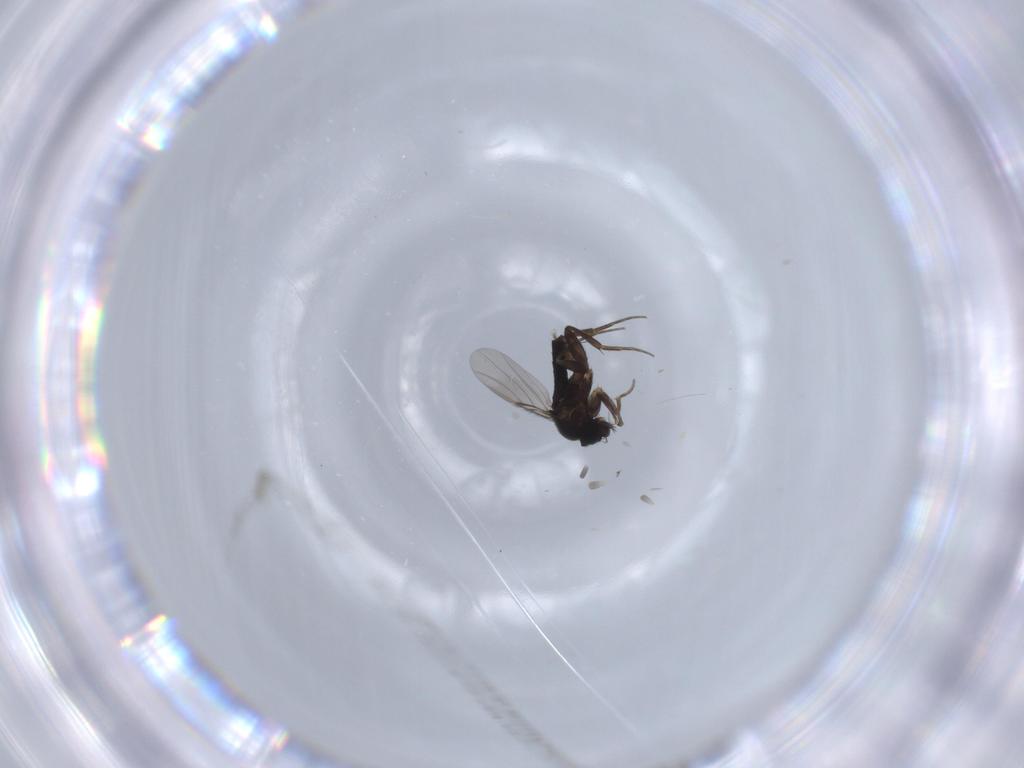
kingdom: Animalia
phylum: Arthropoda
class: Insecta
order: Diptera
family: Phoridae
